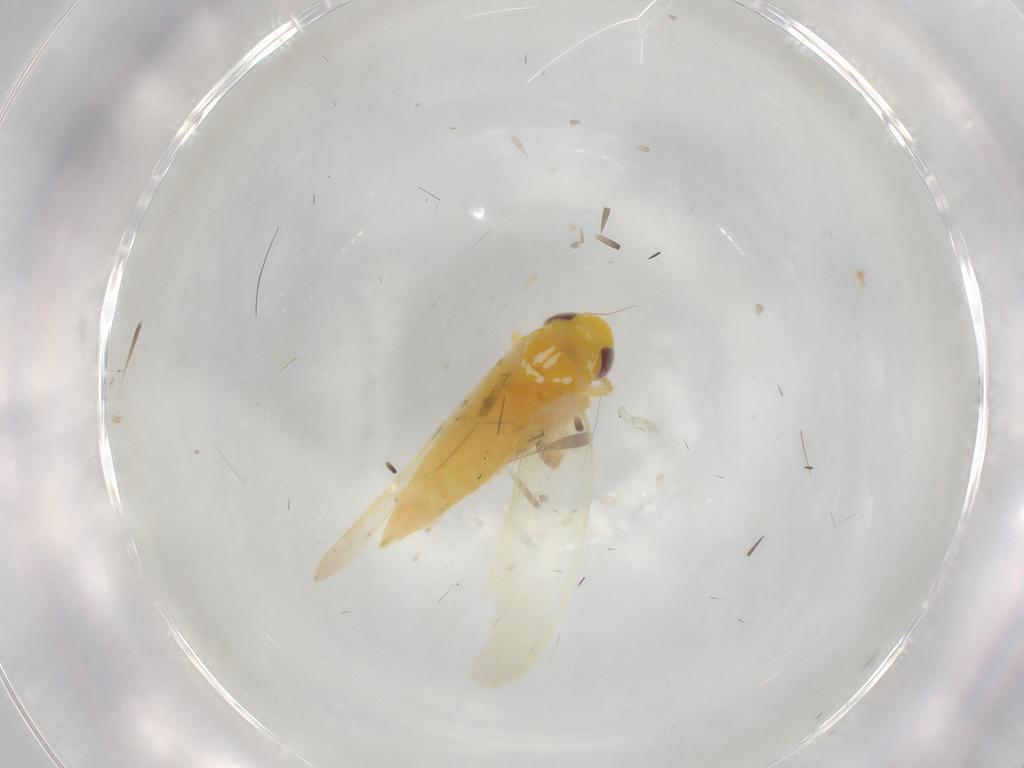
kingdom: Animalia
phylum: Arthropoda
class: Insecta
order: Hemiptera
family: Cicadellidae
